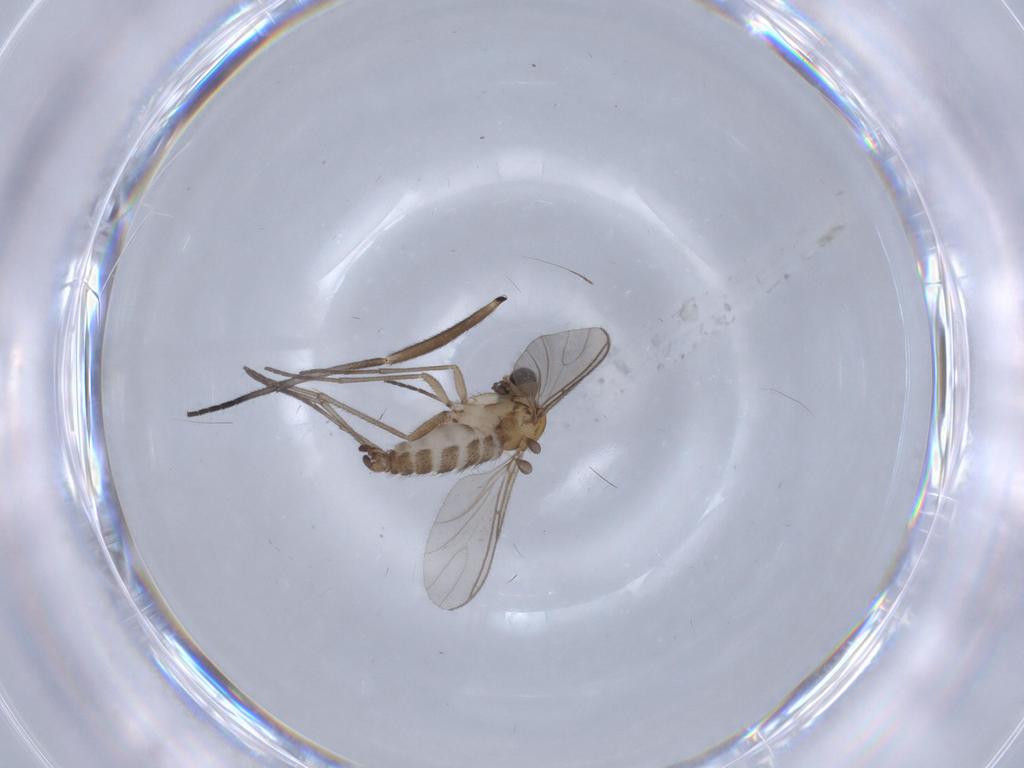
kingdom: Animalia
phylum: Arthropoda
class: Insecta
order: Diptera
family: Sciaridae
